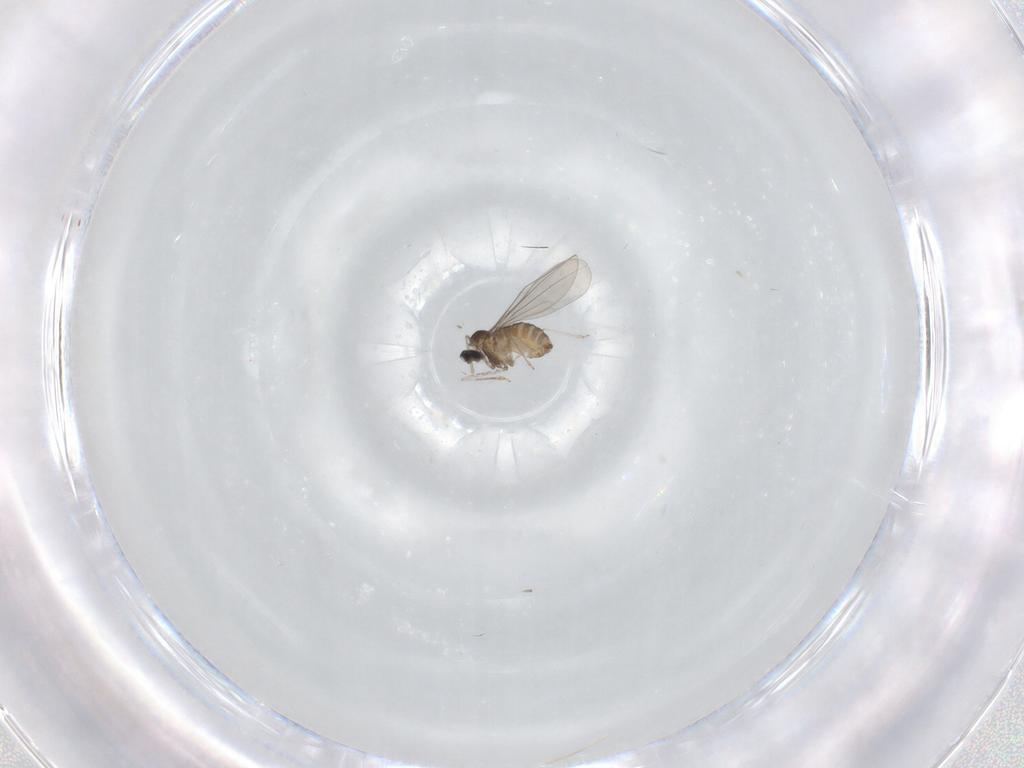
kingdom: Animalia
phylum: Arthropoda
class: Insecta
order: Diptera
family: Cecidomyiidae
